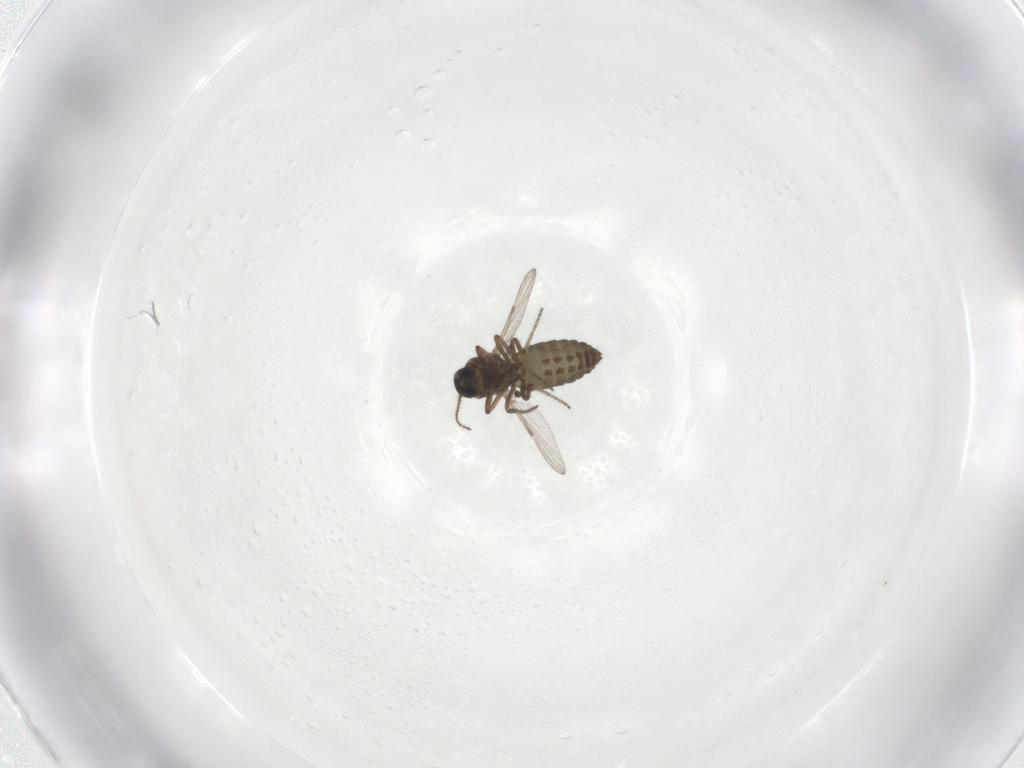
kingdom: Animalia
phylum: Arthropoda
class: Insecta
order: Diptera
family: Ceratopogonidae
